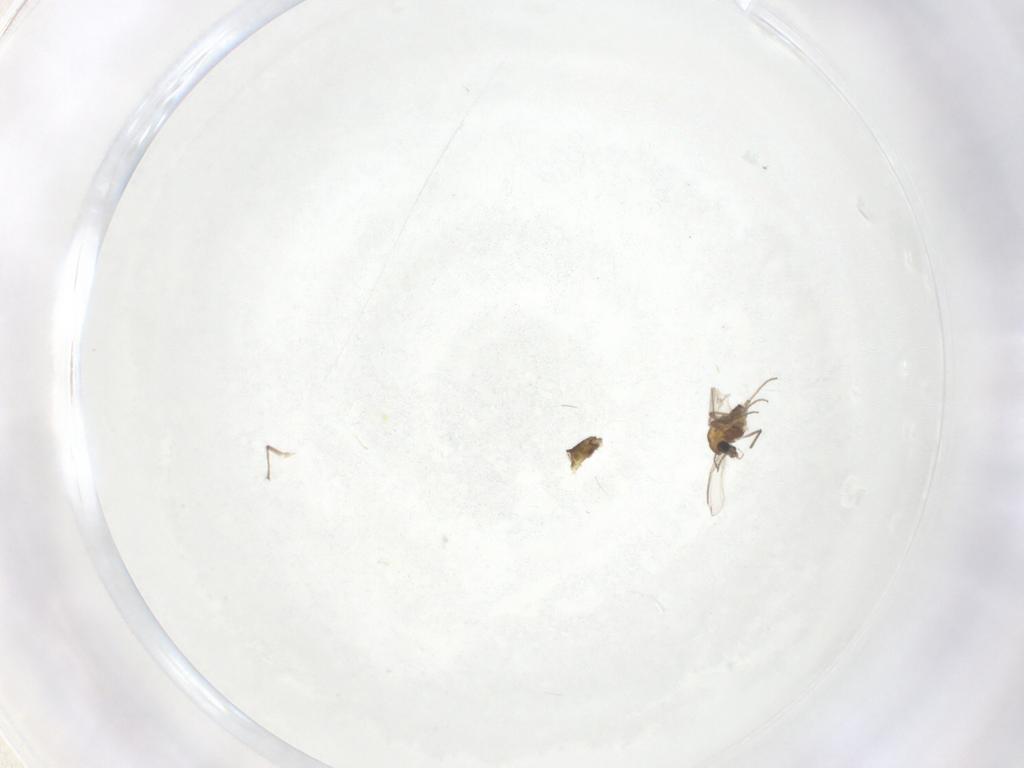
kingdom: Animalia
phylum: Arthropoda
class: Insecta
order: Diptera
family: Chironomidae
